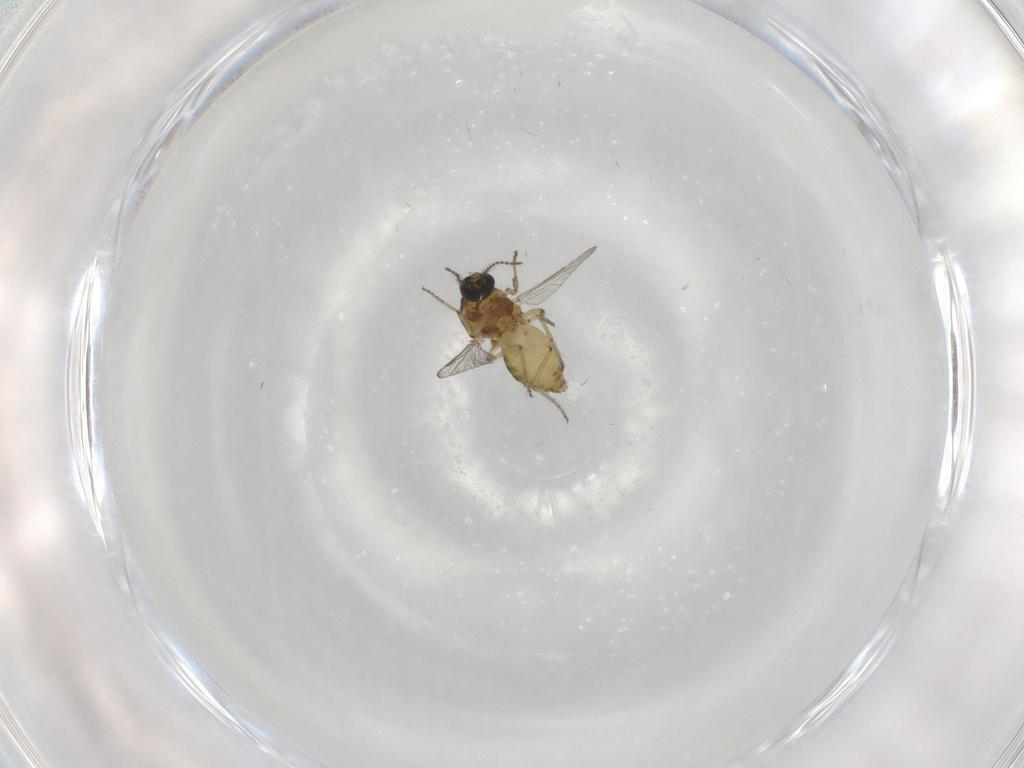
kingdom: Animalia
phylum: Arthropoda
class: Insecta
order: Diptera
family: Ceratopogonidae
